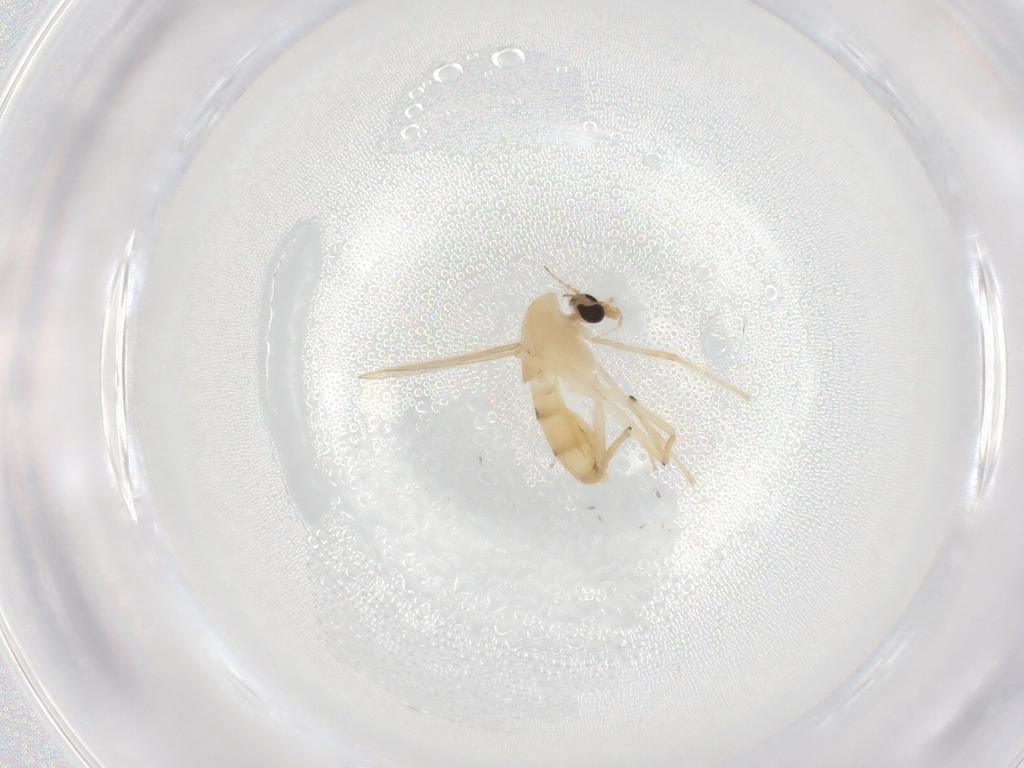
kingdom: Animalia
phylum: Arthropoda
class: Insecta
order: Diptera
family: Chironomidae
